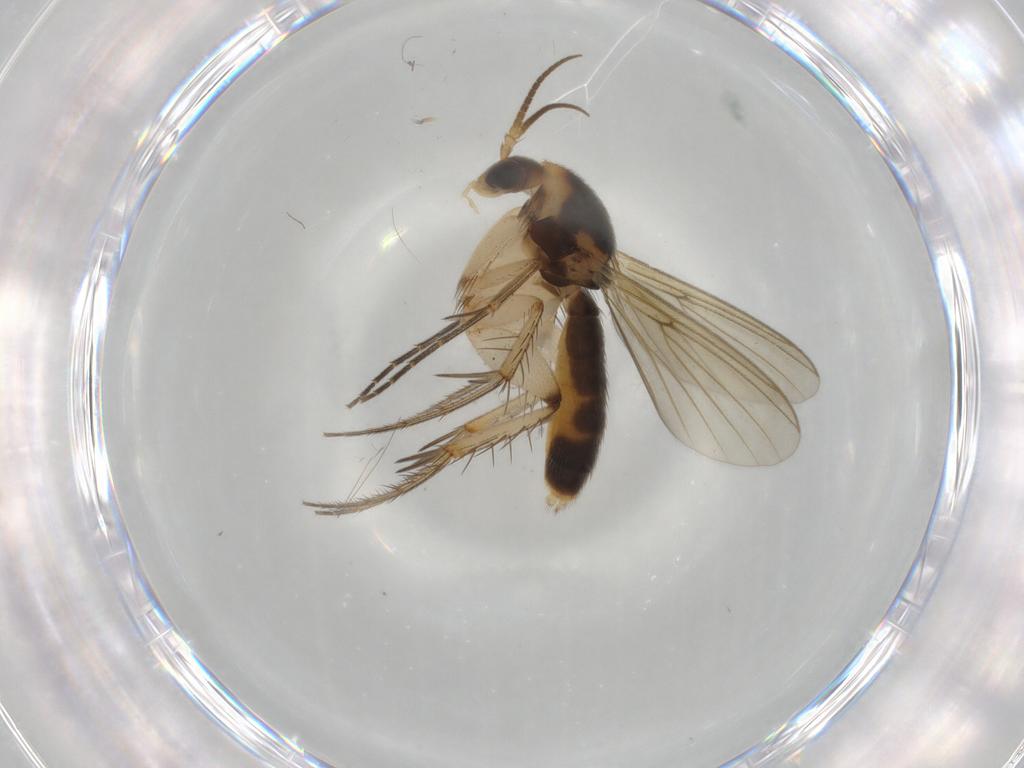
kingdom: Animalia
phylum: Arthropoda
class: Insecta
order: Diptera
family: Mycetophilidae
